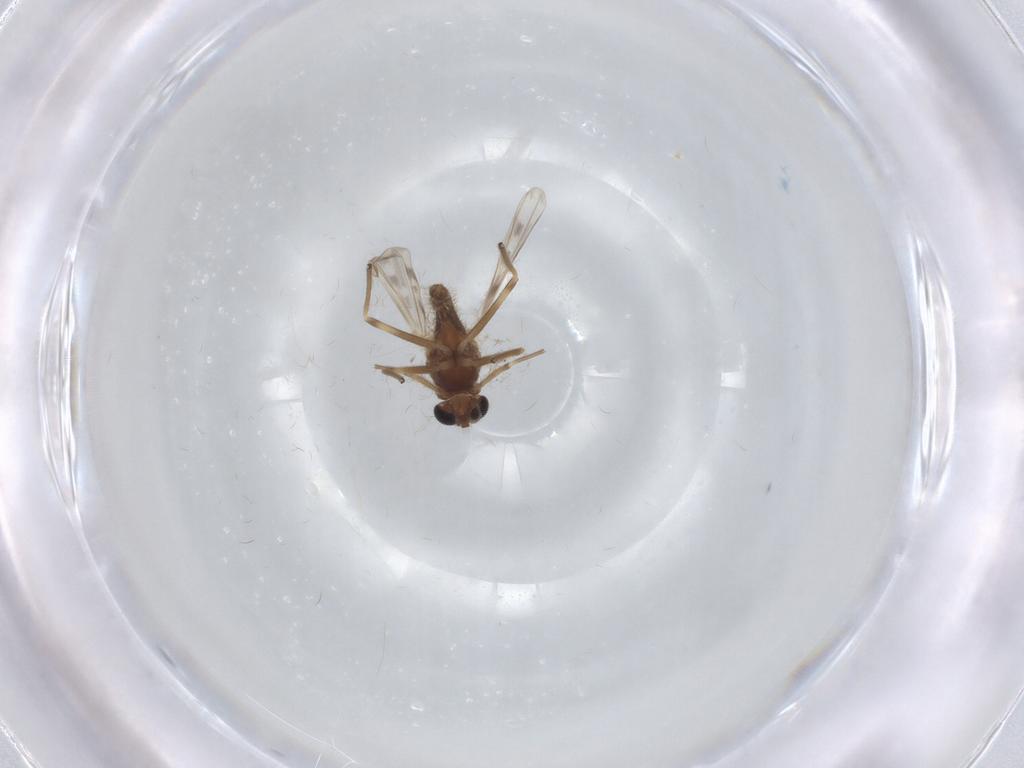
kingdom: Animalia
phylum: Arthropoda
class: Insecta
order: Diptera
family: Chironomidae
